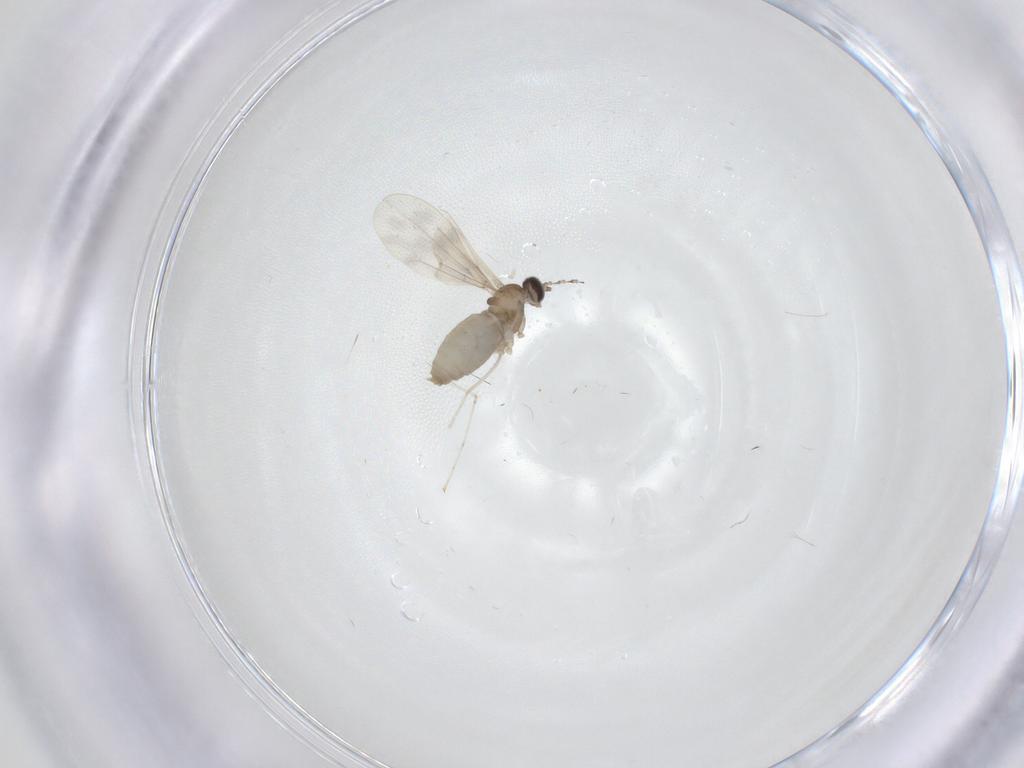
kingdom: Animalia
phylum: Arthropoda
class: Insecta
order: Diptera
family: Cecidomyiidae
